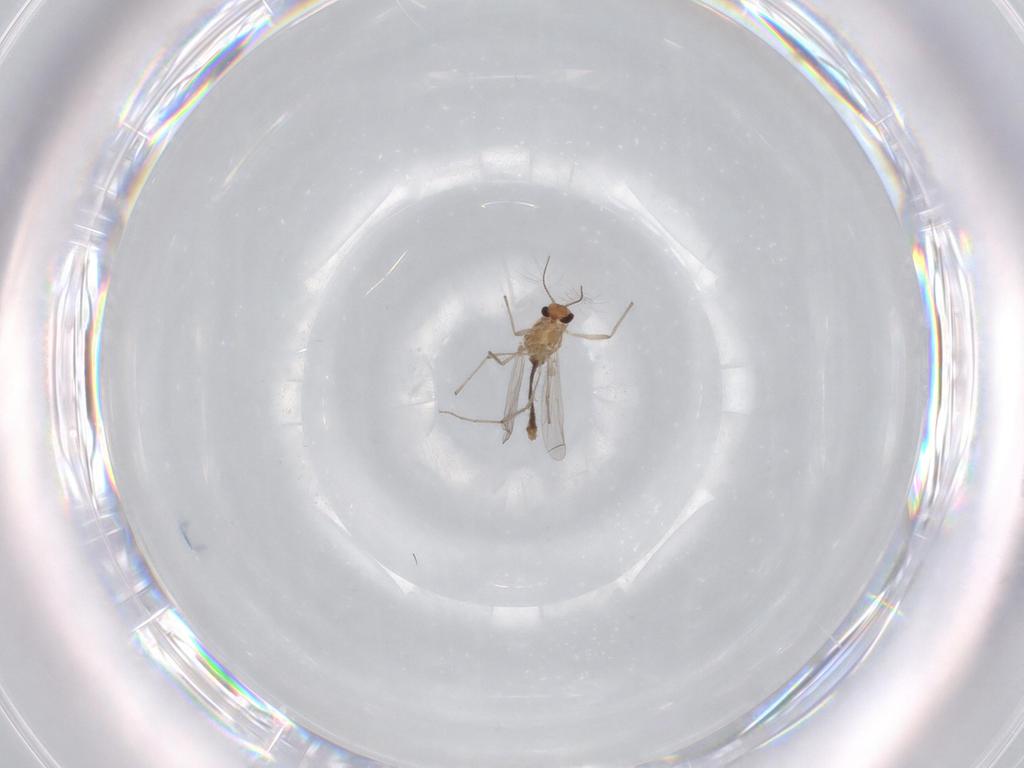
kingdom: Animalia
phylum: Arthropoda
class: Insecta
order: Diptera
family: Chironomidae
